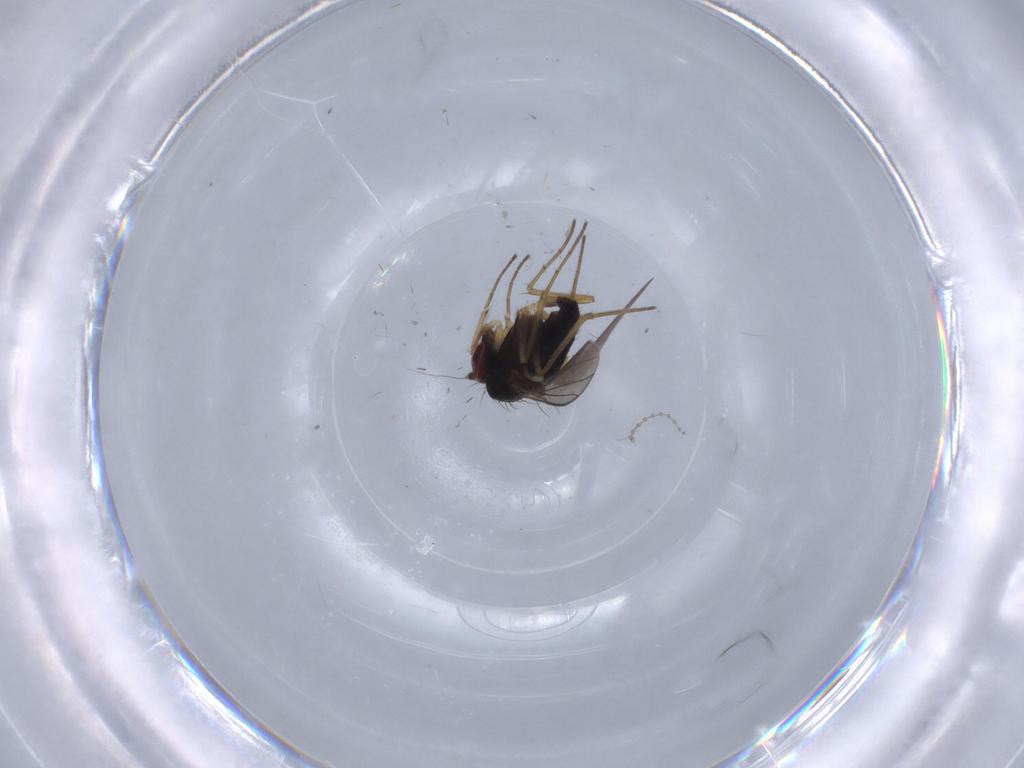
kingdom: Animalia
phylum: Arthropoda
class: Insecta
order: Diptera
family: Dolichopodidae
